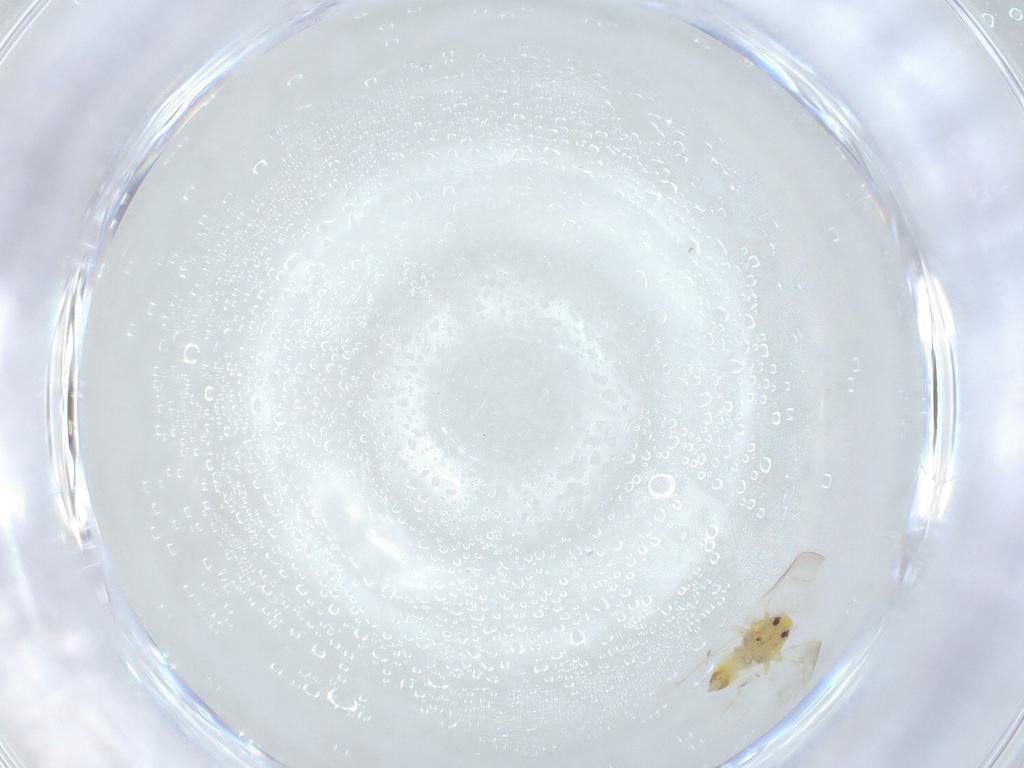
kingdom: Animalia
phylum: Arthropoda
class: Insecta
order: Hemiptera
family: Aleyrodidae
